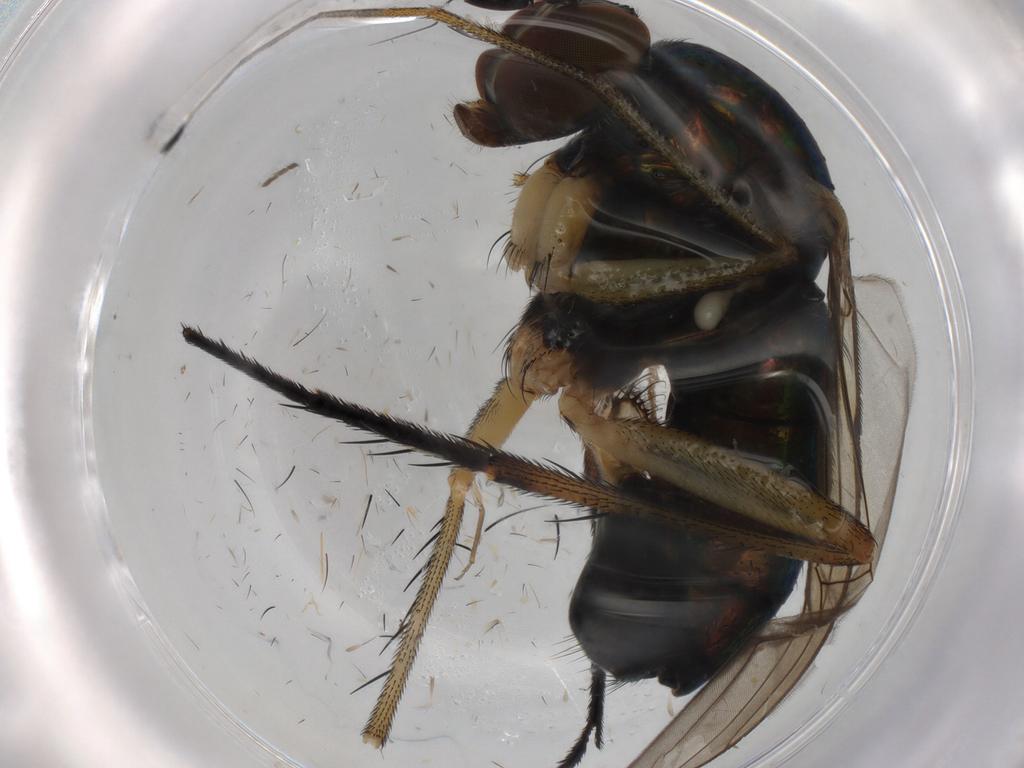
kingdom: Animalia
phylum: Arthropoda
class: Insecta
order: Diptera
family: Dolichopodidae
